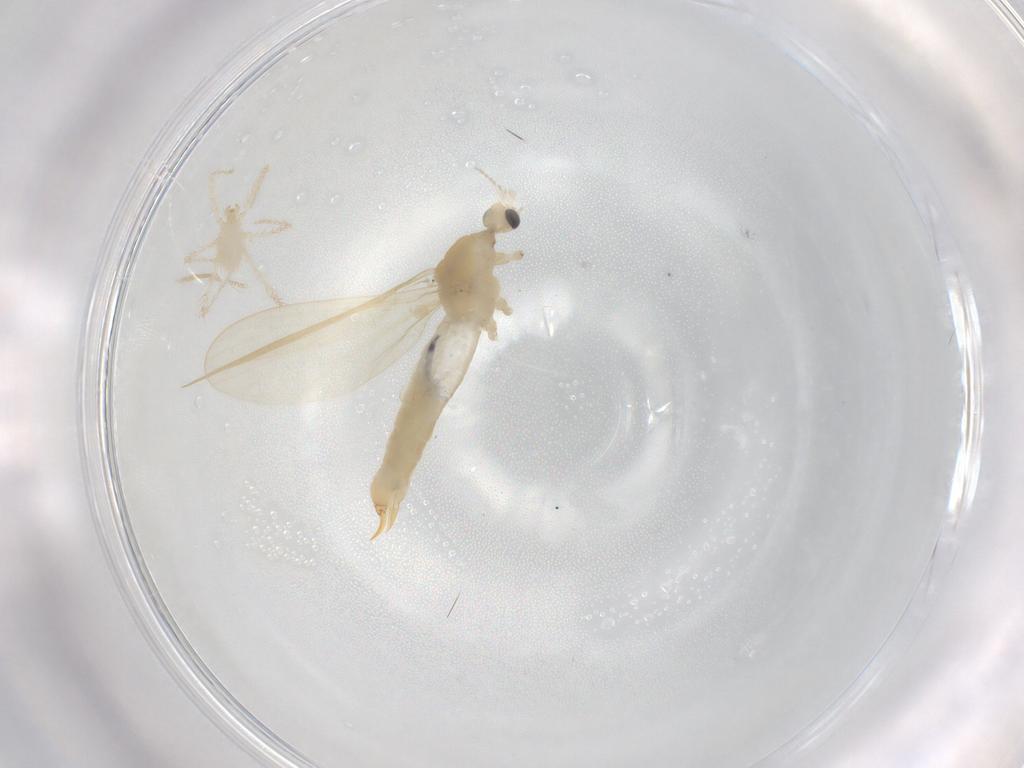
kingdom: Animalia
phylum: Arthropoda
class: Insecta
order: Diptera
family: Limoniidae
